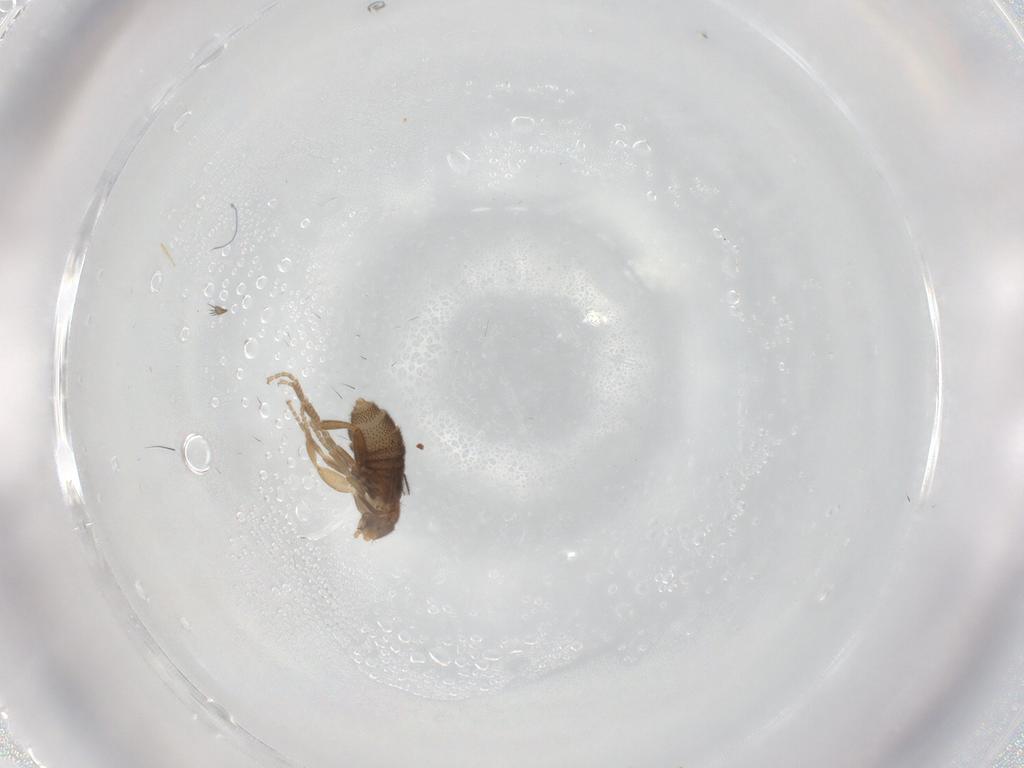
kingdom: Animalia
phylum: Arthropoda
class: Insecta
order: Diptera
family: Phoridae
